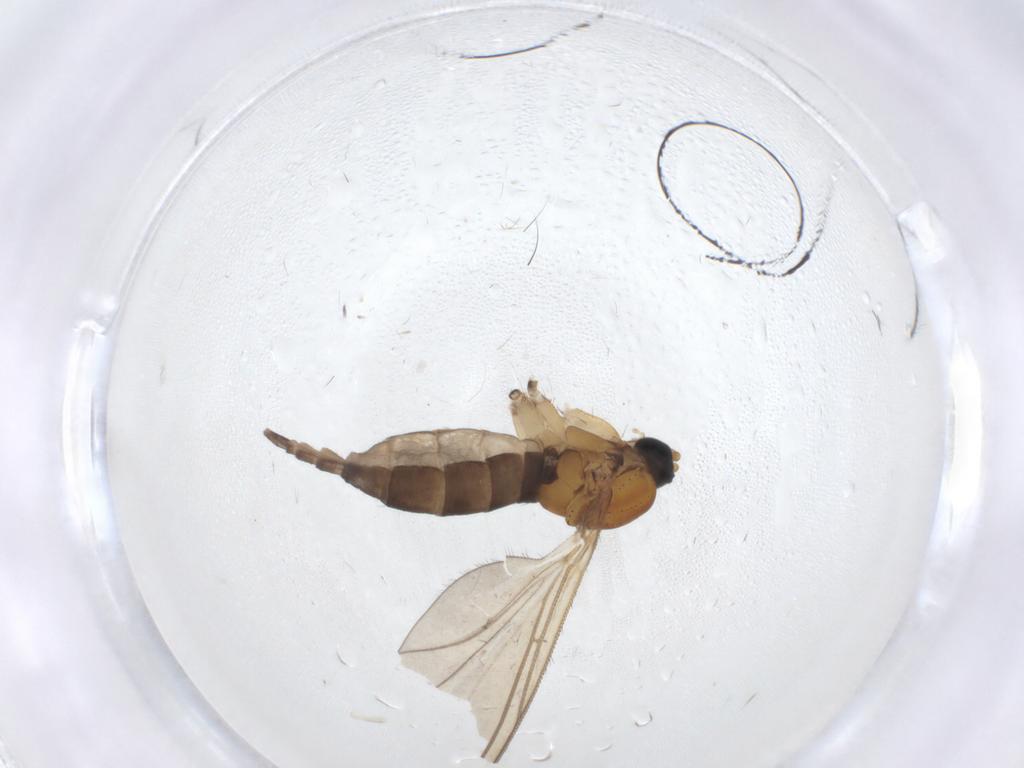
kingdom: Animalia
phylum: Arthropoda
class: Insecta
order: Diptera
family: Sciaridae
